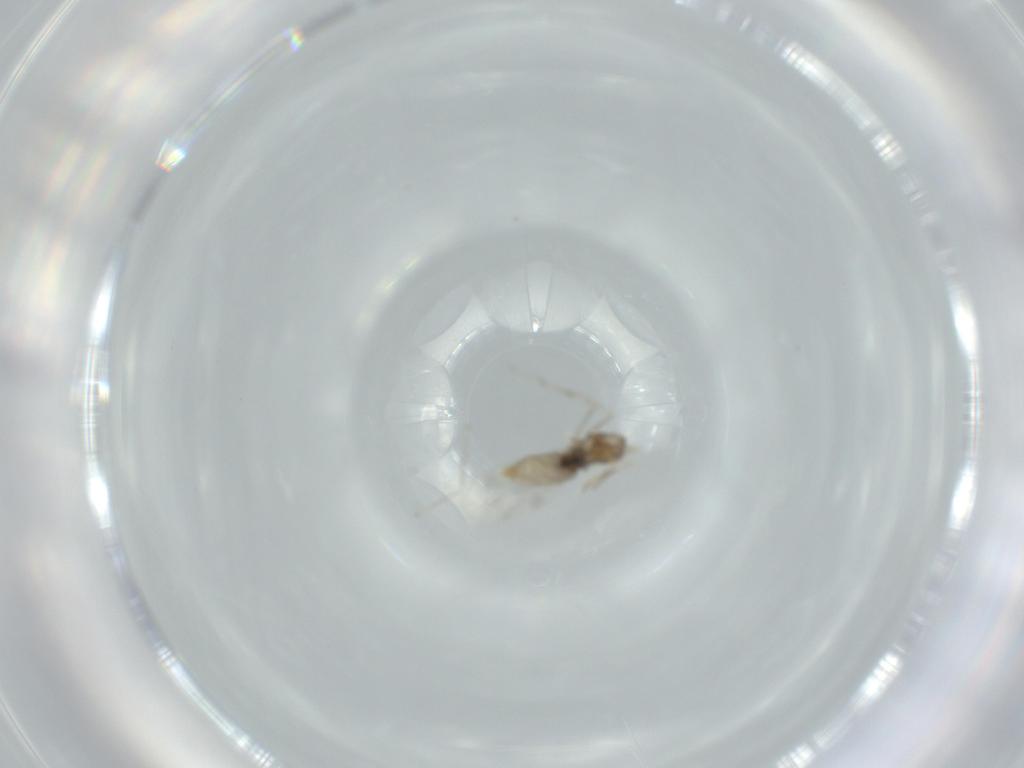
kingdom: Animalia
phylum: Arthropoda
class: Insecta
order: Diptera
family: Cecidomyiidae
